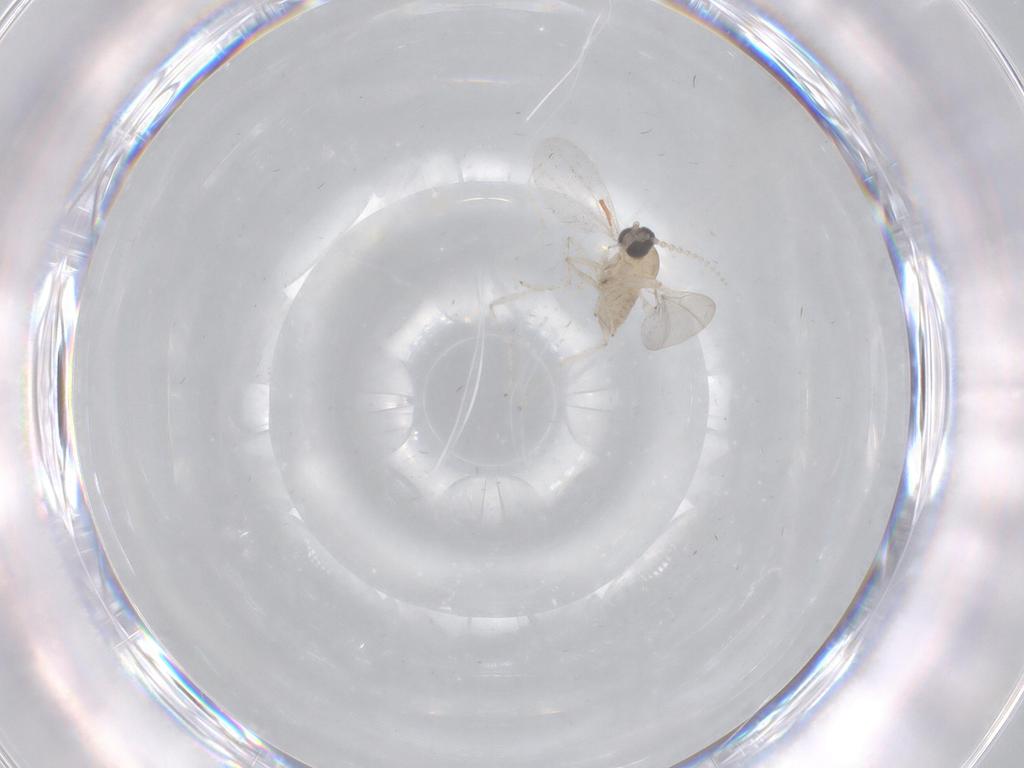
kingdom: Animalia
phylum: Arthropoda
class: Insecta
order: Diptera
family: Cecidomyiidae
